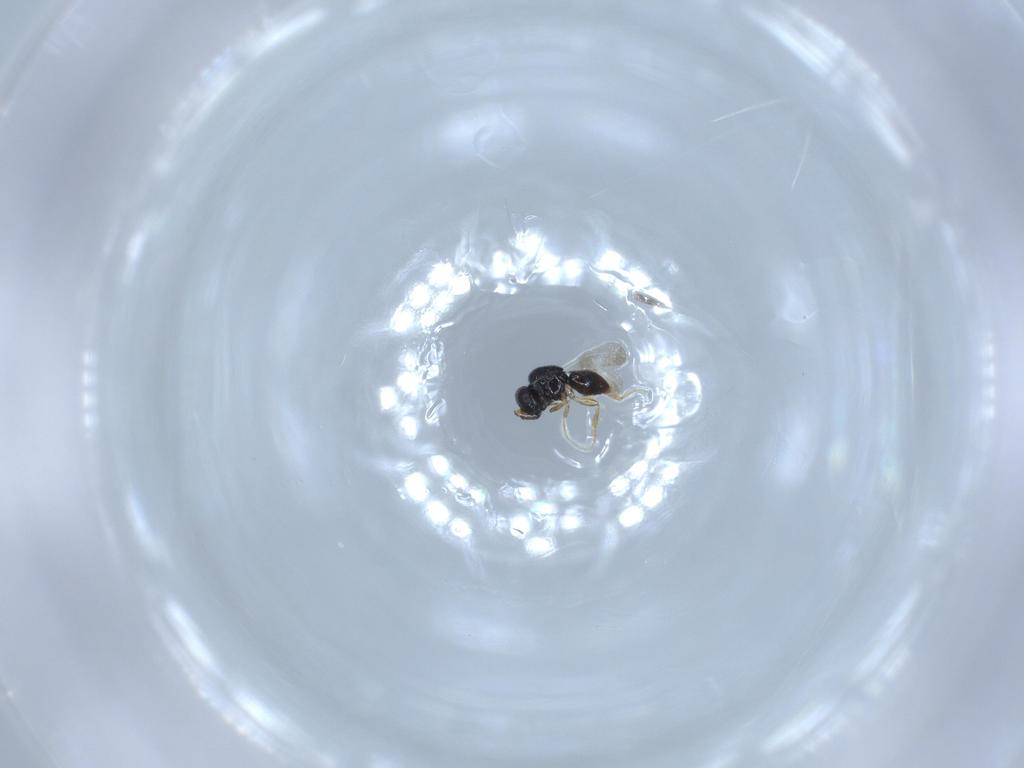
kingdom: Animalia
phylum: Arthropoda
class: Insecta
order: Hymenoptera
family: Ceraphronidae
